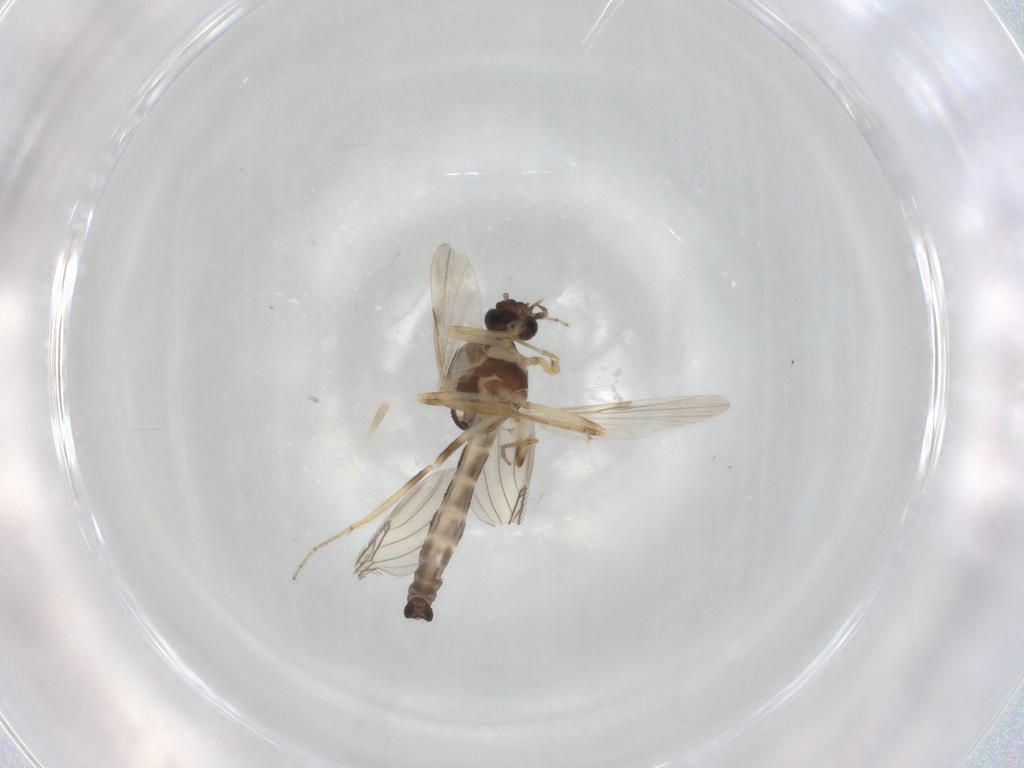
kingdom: Animalia
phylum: Arthropoda
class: Insecta
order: Diptera
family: Ceratopogonidae
